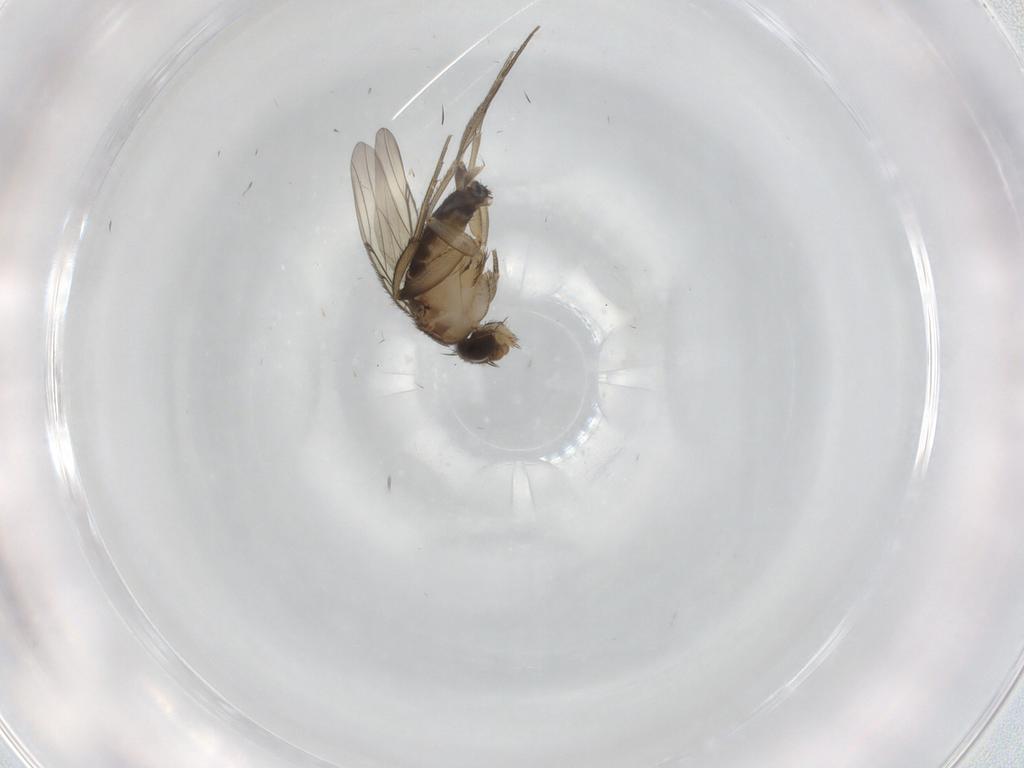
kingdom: Animalia
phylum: Arthropoda
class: Insecta
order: Diptera
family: Phoridae
